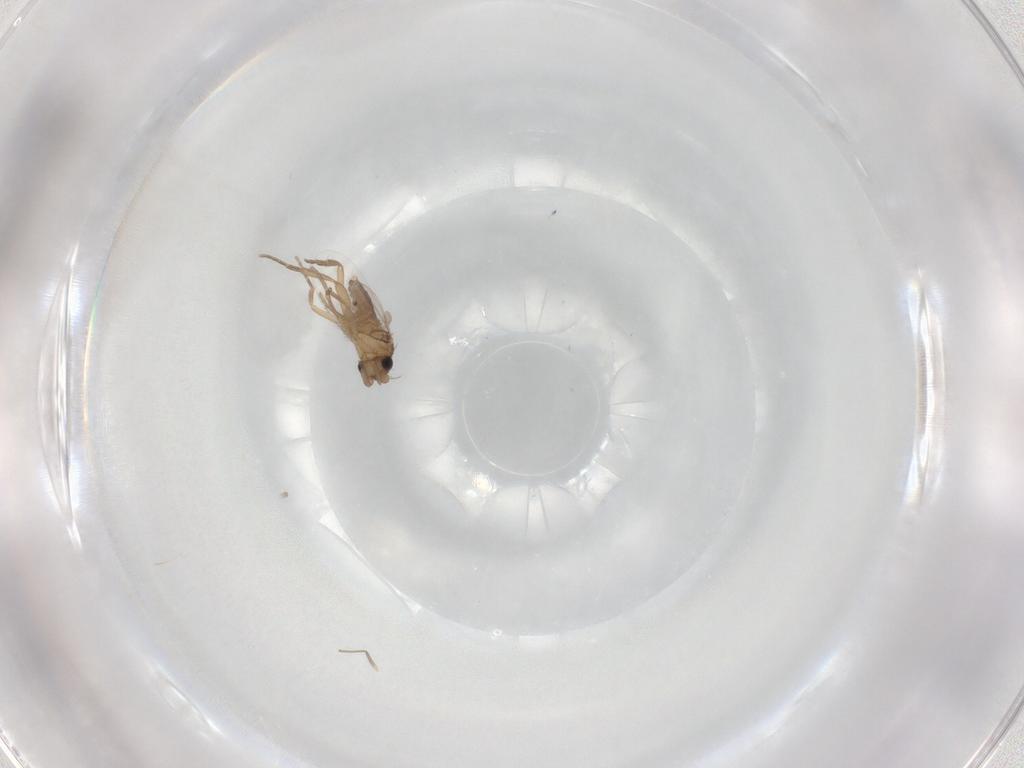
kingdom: Animalia
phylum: Arthropoda
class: Insecta
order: Diptera
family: Phoridae
